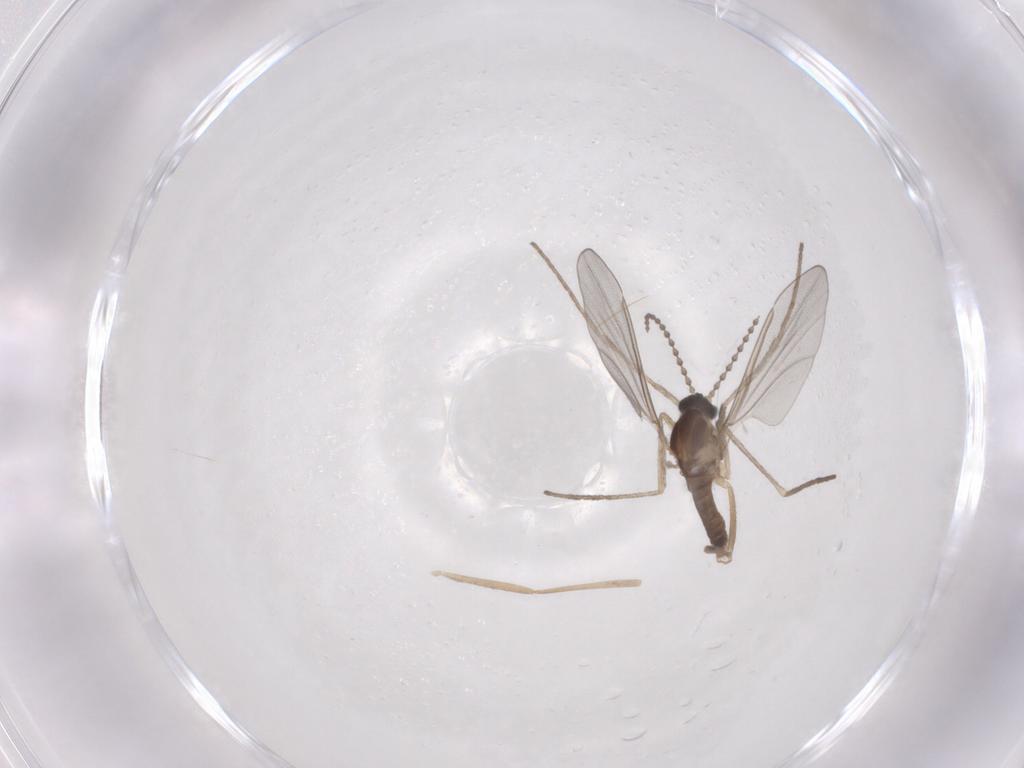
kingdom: Animalia
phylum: Arthropoda
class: Insecta
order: Diptera
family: Cecidomyiidae
